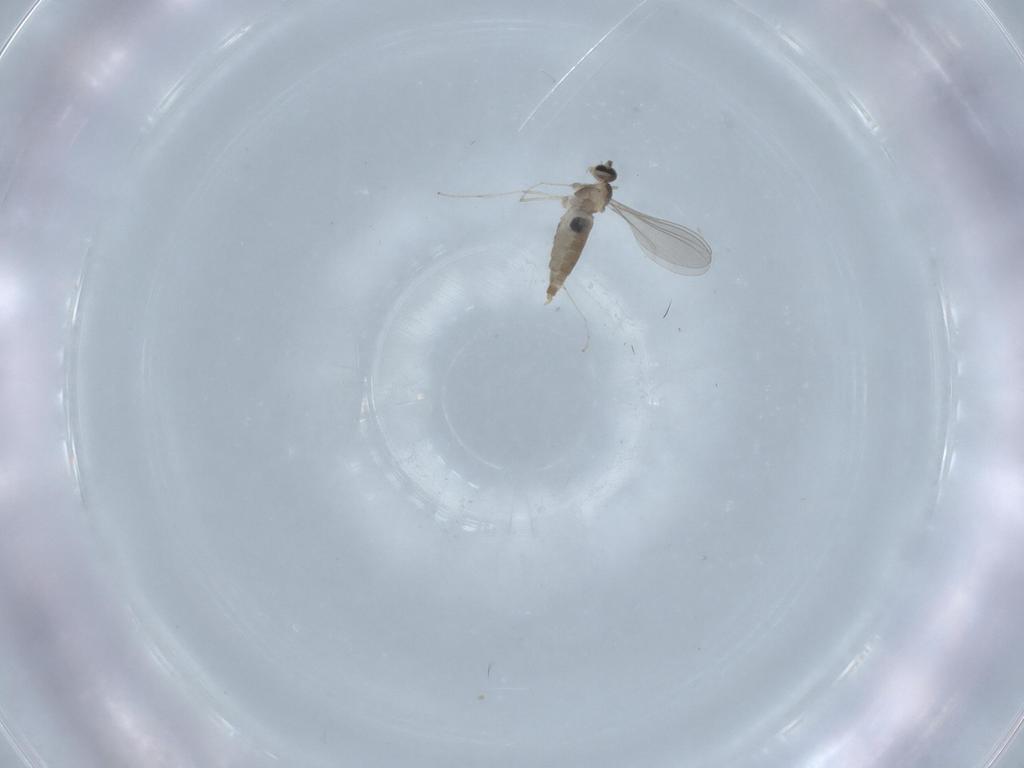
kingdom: Animalia
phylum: Arthropoda
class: Insecta
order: Diptera
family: Chironomidae
